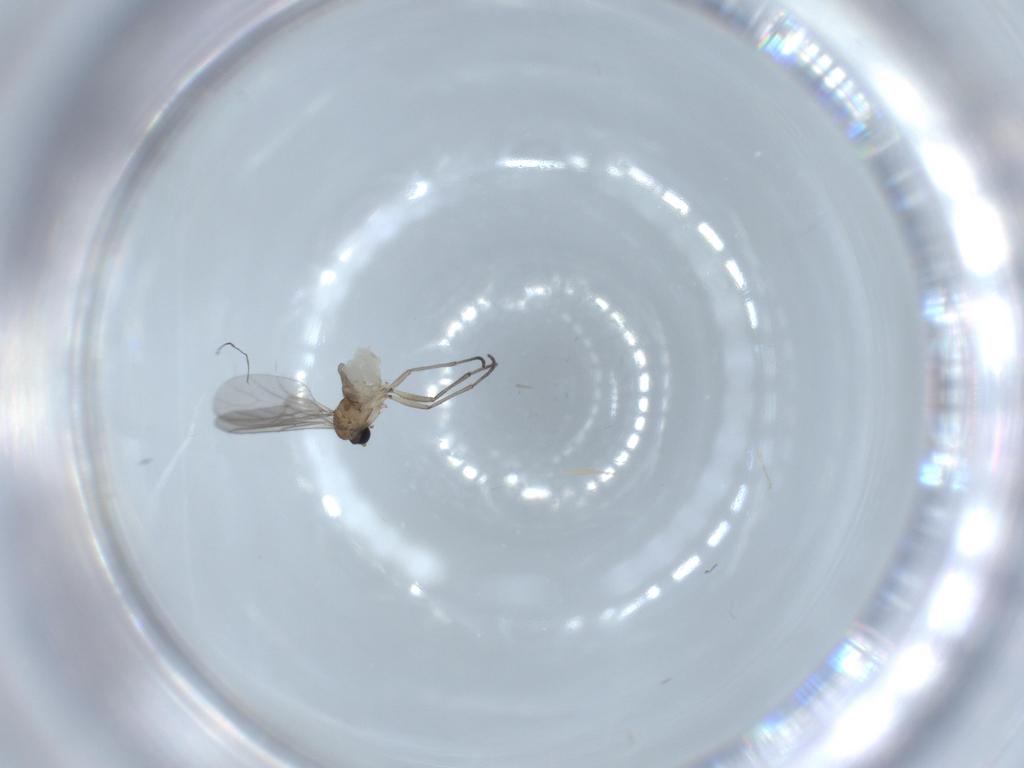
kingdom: Animalia
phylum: Arthropoda
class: Insecta
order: Diptera
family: Sciaridae
